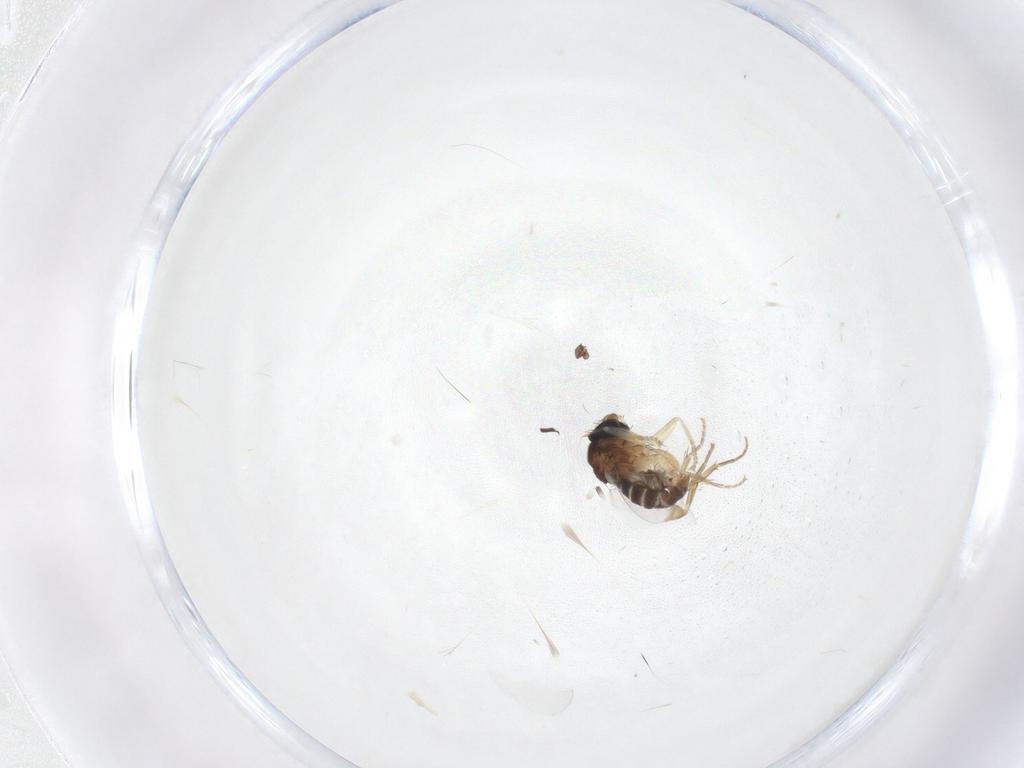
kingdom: Animalia
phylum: Arthropoda
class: Insecta
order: Diptera
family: Phoridae
